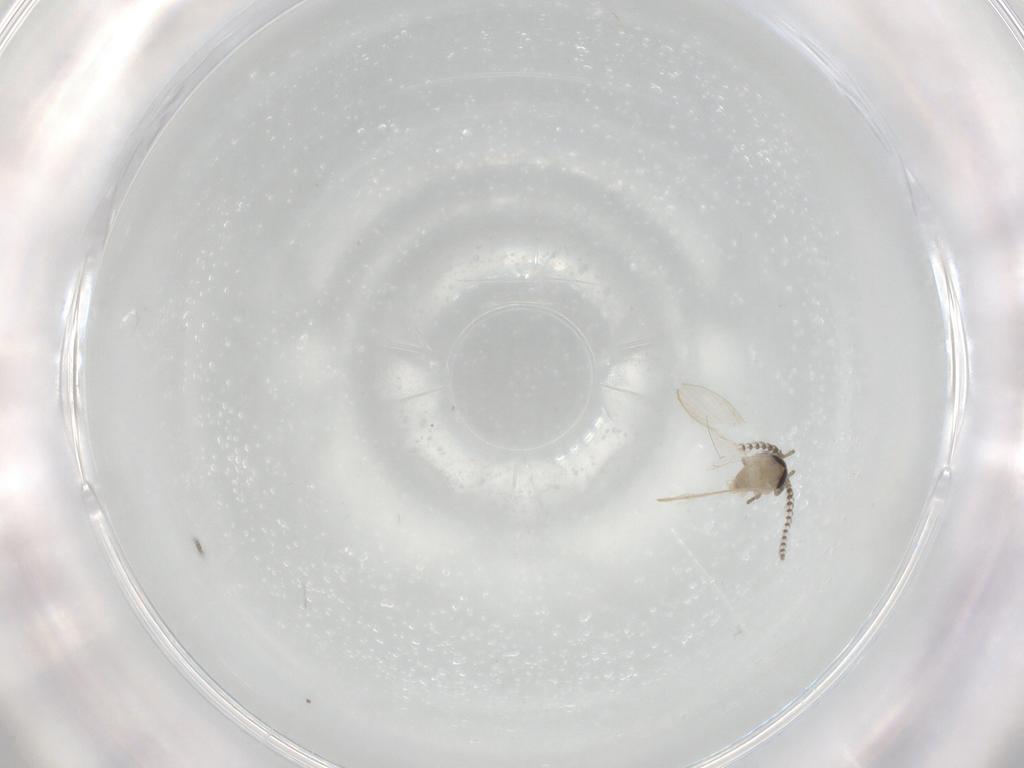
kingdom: Animalia
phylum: Arthropoda
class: Insecta
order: Diptera
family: Psychodidae
